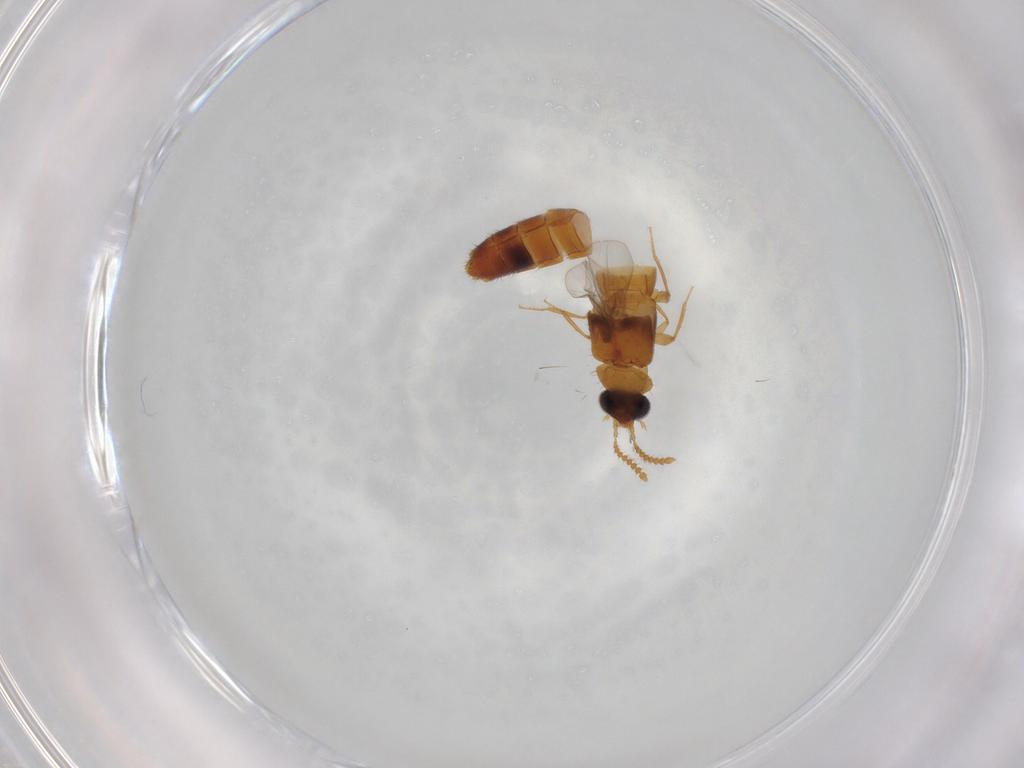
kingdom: Animalia
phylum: Arthropoda
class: Insecta
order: Coleoptera
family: Staphylinidae
